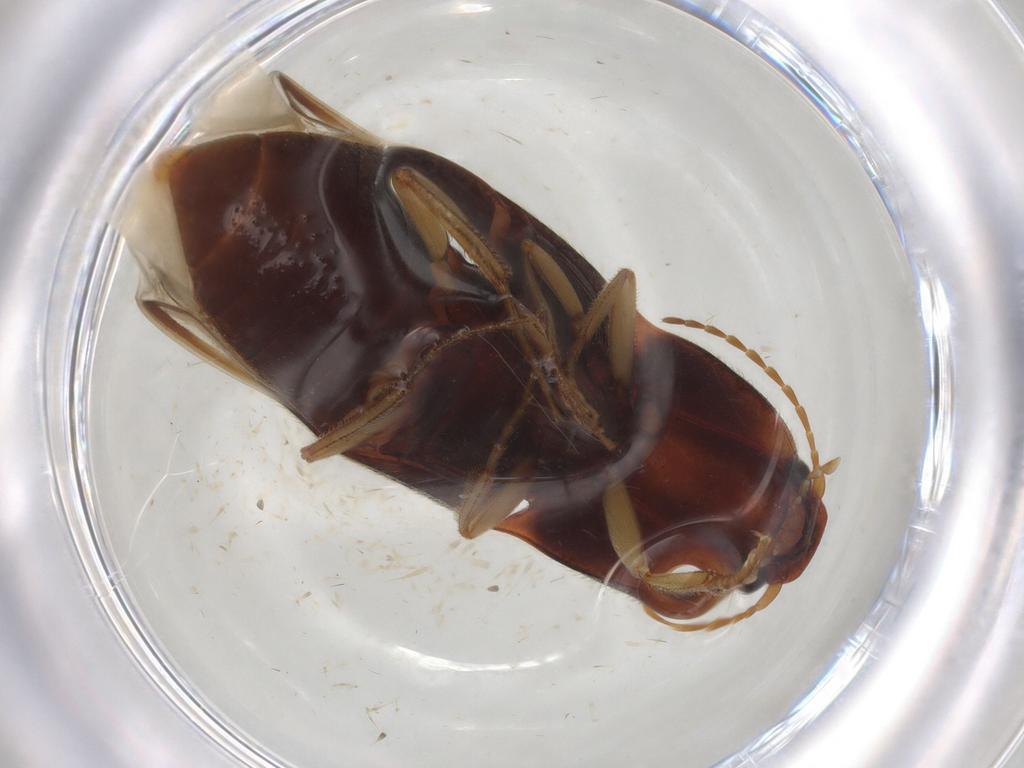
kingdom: Animalia
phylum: Arthropoda
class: Insecta
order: Coleoptera
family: Elateridae
